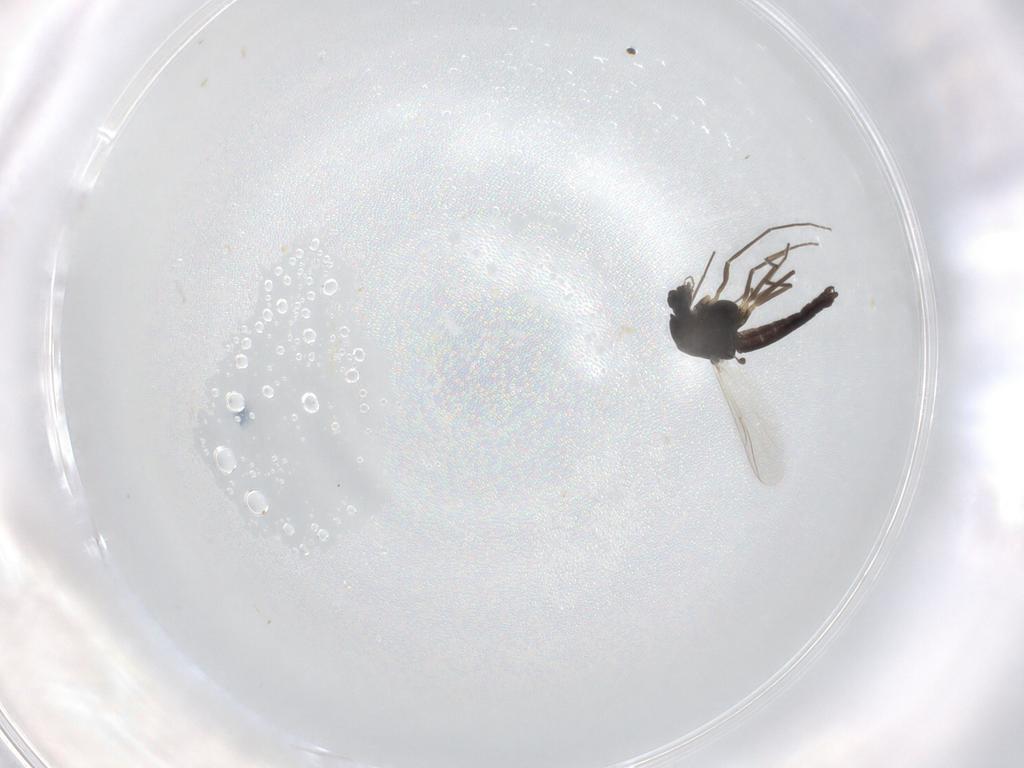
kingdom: Animalia
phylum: Arthropoda
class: Insecta
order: Diptera
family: Chironomidae
